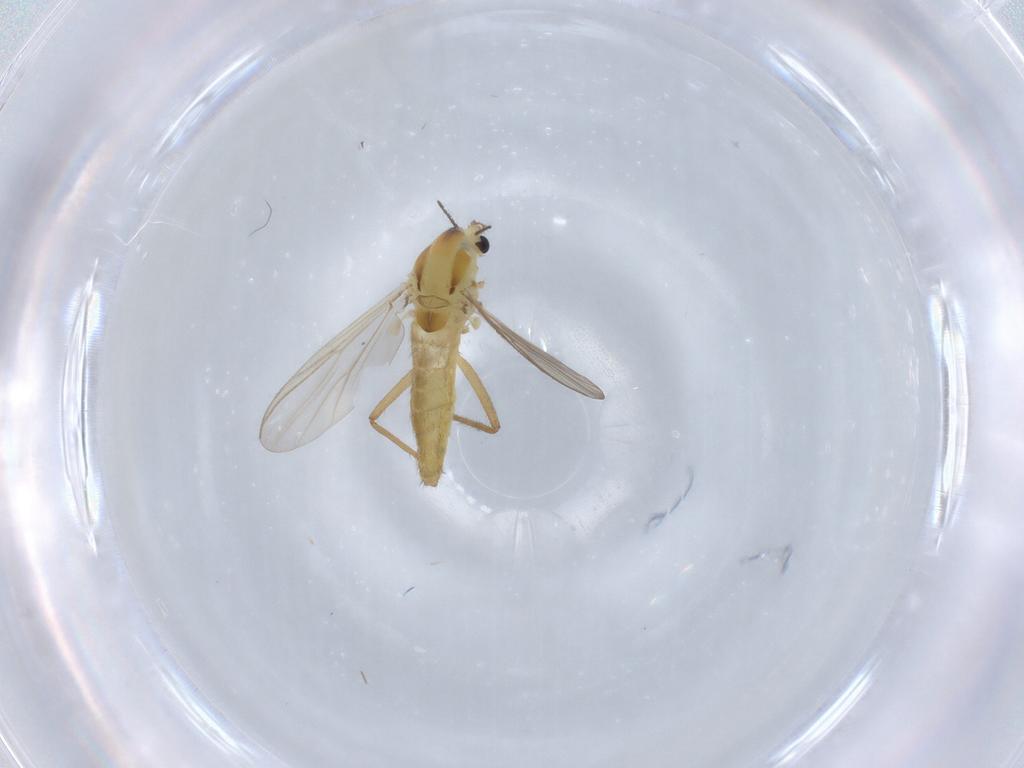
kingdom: Animalia
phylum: Arthropoda
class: Insecta
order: Diptera
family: Chironomidae
